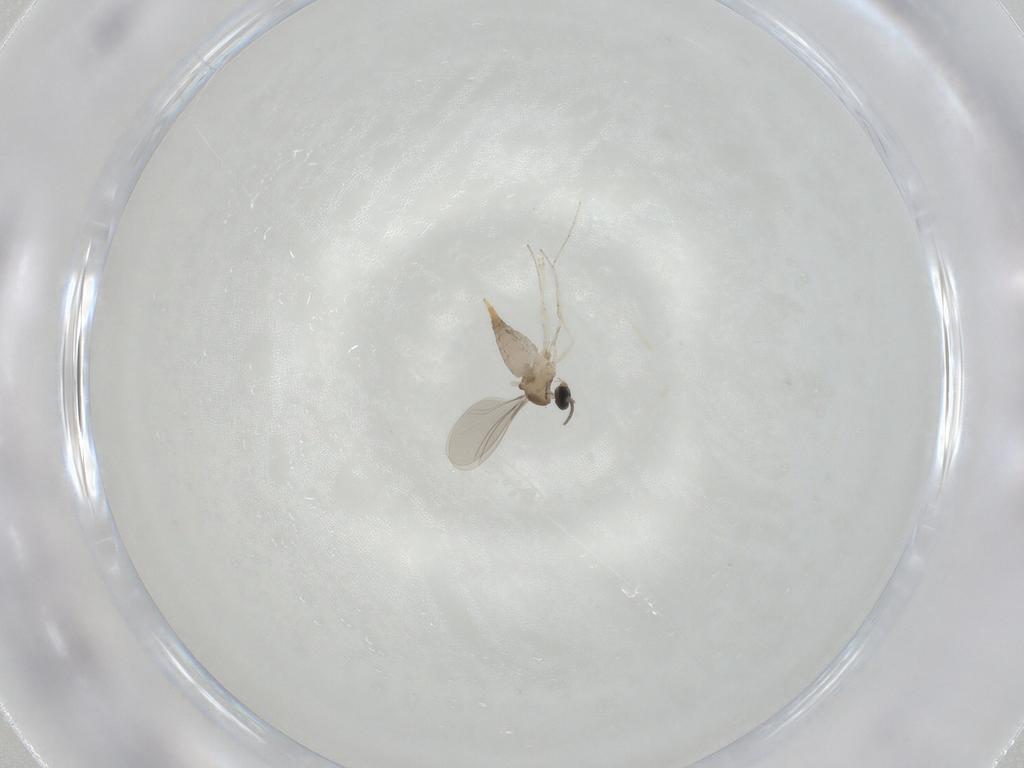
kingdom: Animalia
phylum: Arthropoda
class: Insecta
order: Diptera
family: Cecidomyiidae
